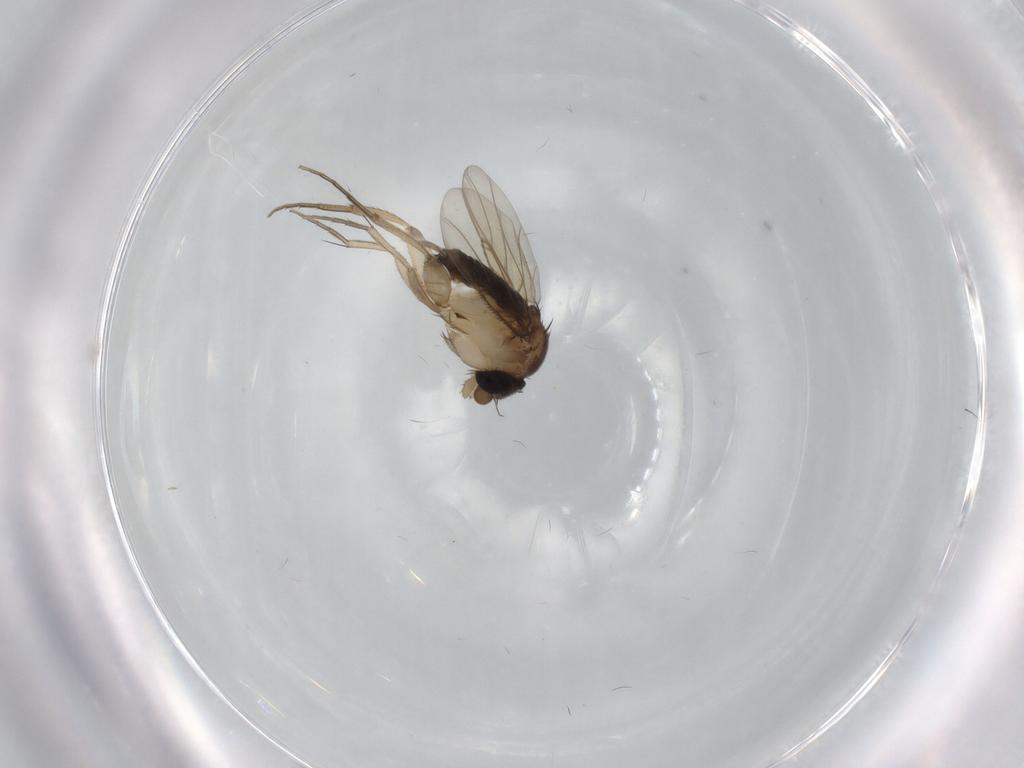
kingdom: Animalia
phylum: Arthropoda
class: Insecta
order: Diptera
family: Phoridae
